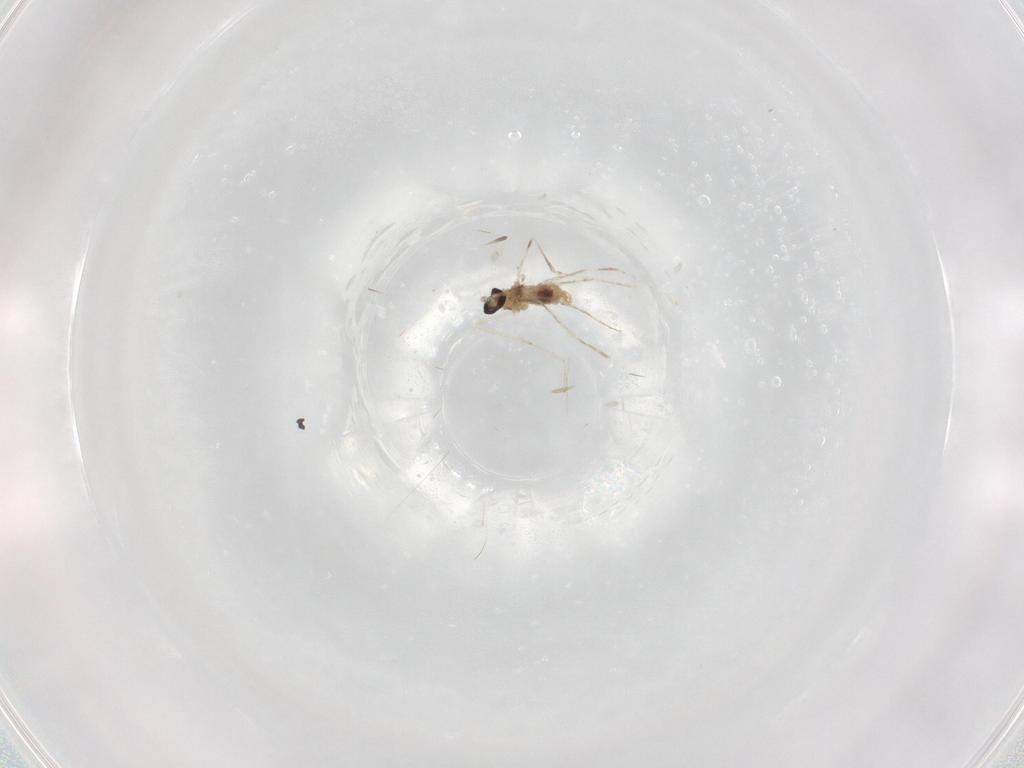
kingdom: Animalia
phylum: Arthropoda
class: Insecta
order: Diptera
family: Cecidomyiidae
